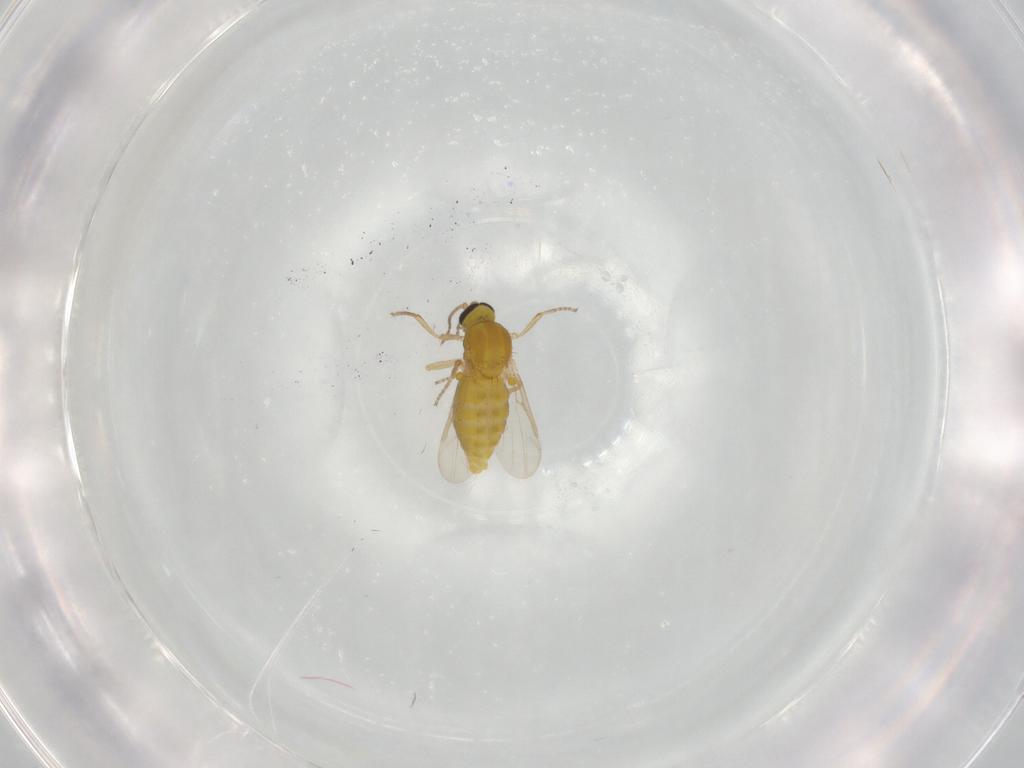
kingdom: Animalia
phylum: Arthropoda
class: Insecta
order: Diptera
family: Ceratopogonidae
